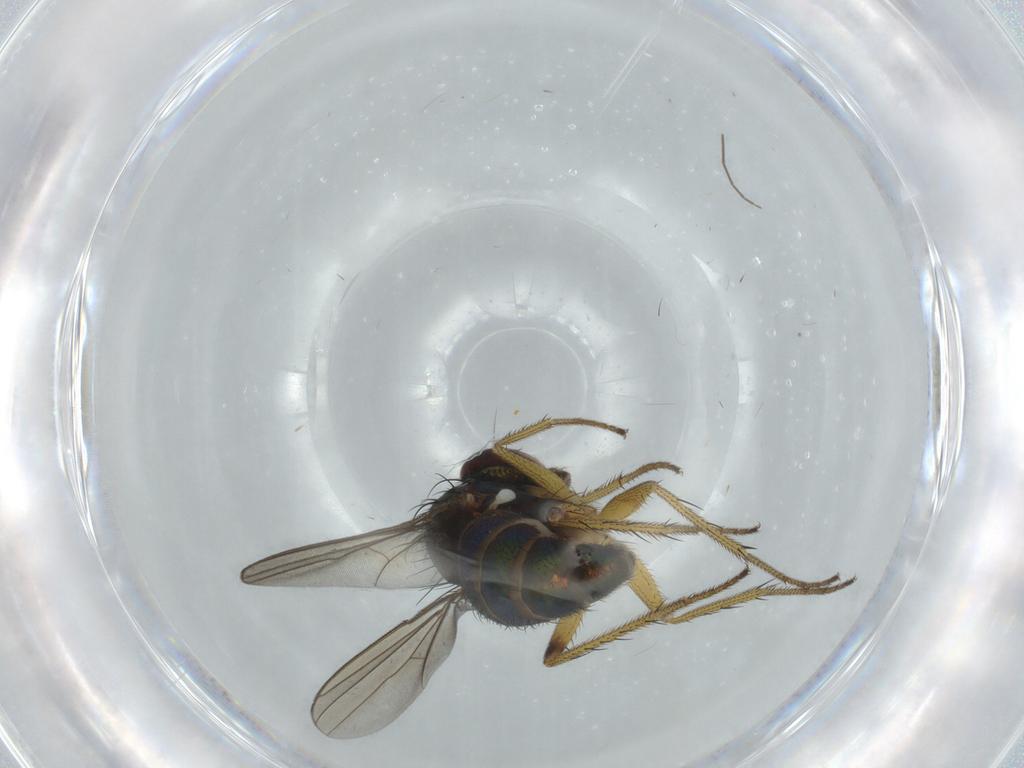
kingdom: Animalia
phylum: Arthropoda
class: Insecta
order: Diptera
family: Dolichopodidae
